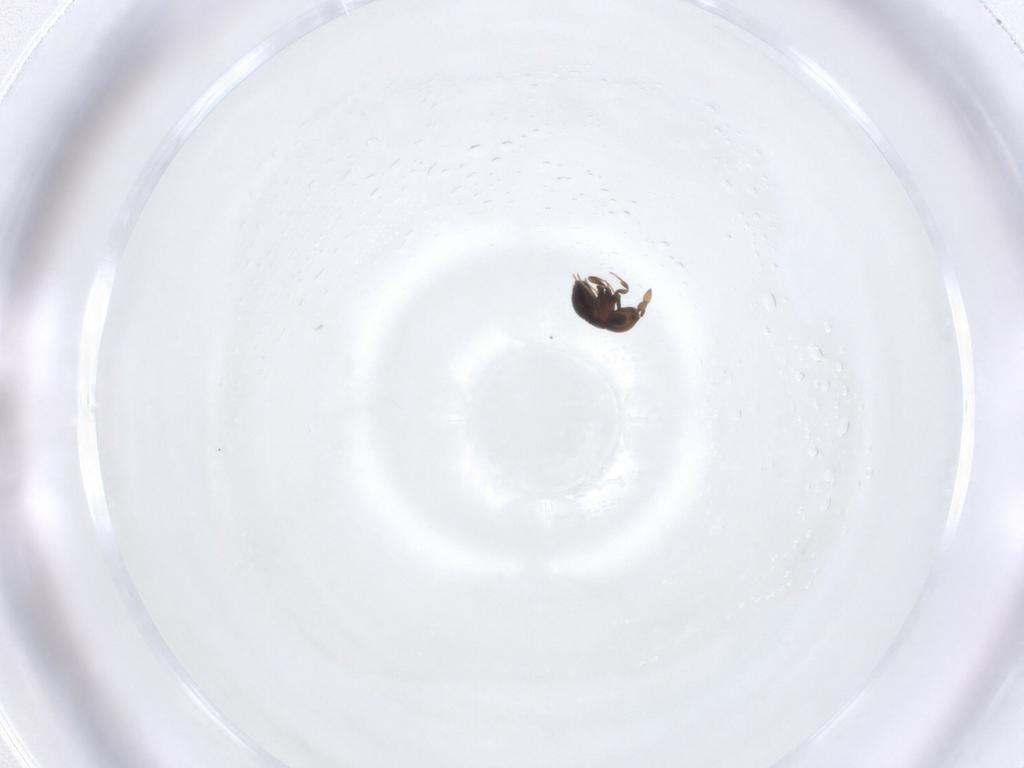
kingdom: Animalia
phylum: Arthropoda
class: Insecta
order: Hymenoptera
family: Scelionidae
